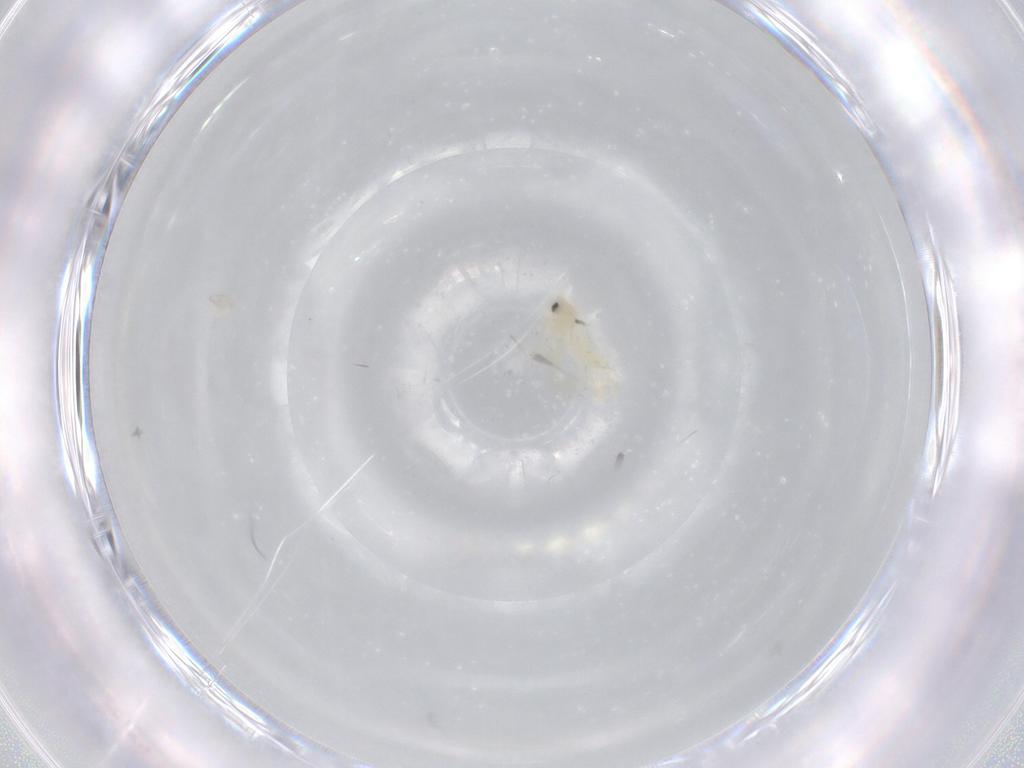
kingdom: Animalia
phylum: Arthropoda
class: Insecta
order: Hemiptera
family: Aleyrodidae
